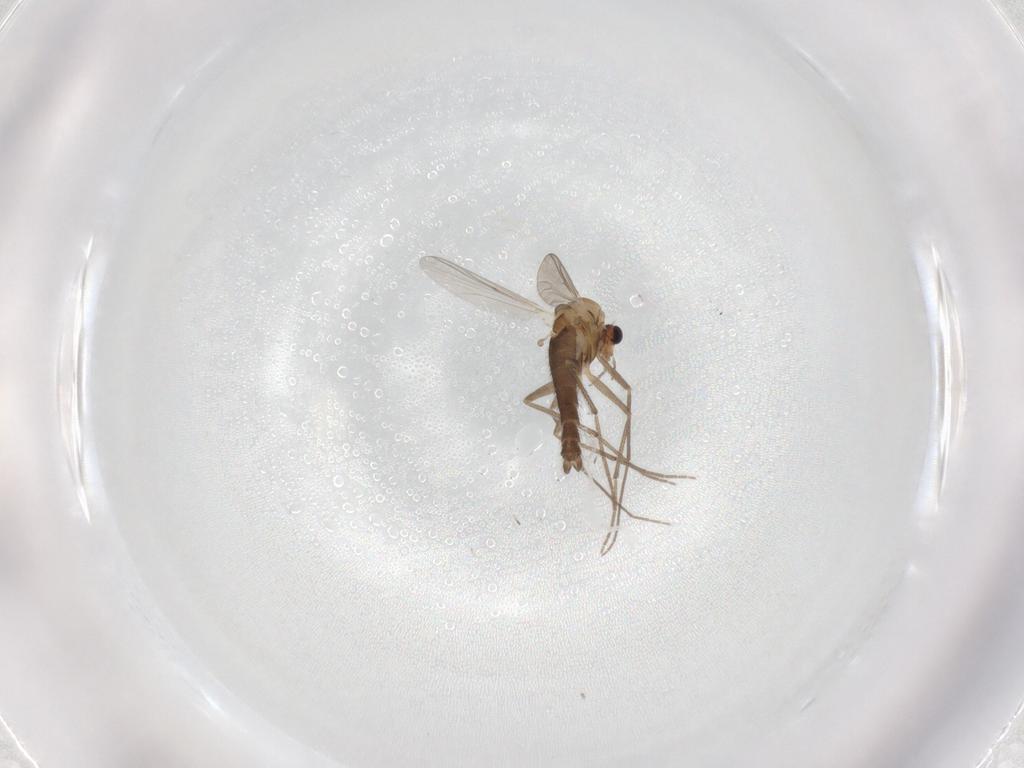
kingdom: Animalia
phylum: Arthropoda
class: Insecta
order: Diptera
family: Chironomidae
